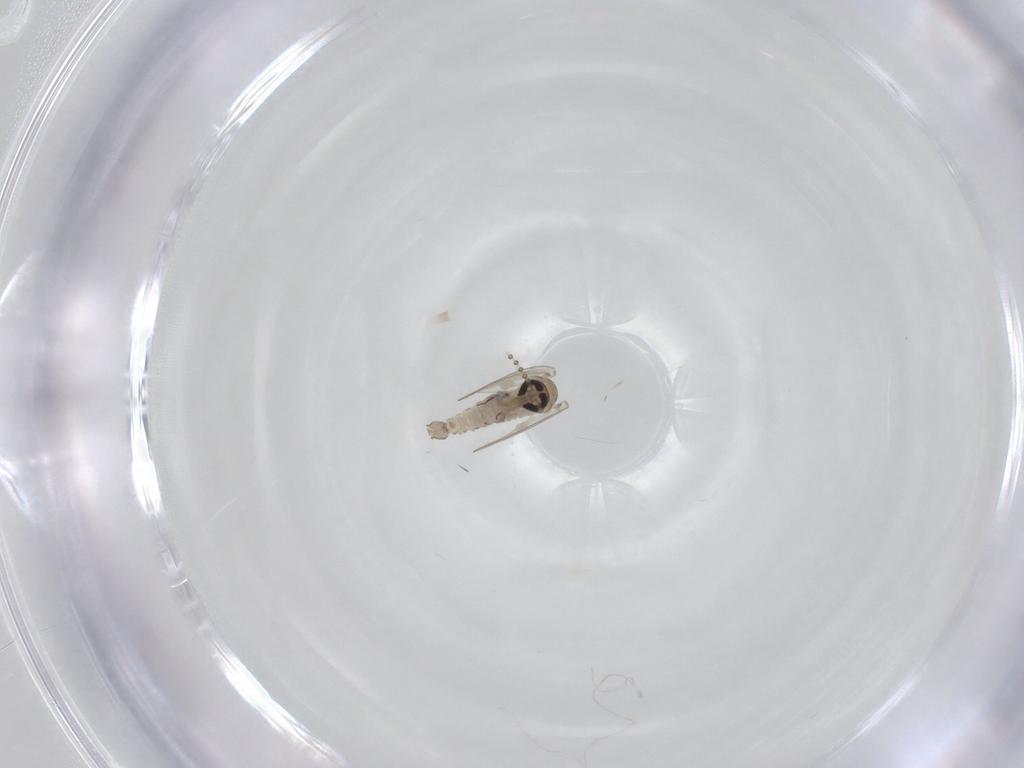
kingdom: Animalia
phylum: Arthropoda
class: Insecta
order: Diptera
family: Psychodidae
